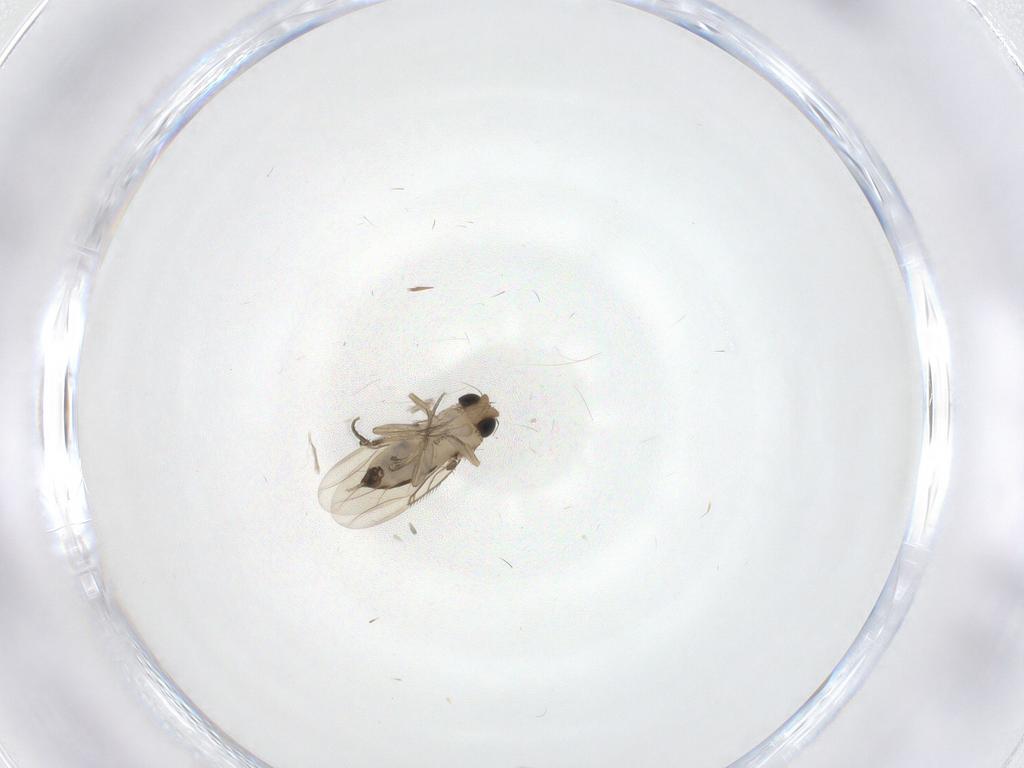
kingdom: Animalia
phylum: Arthropoda
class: Insecta
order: Diptera
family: Phoridae
